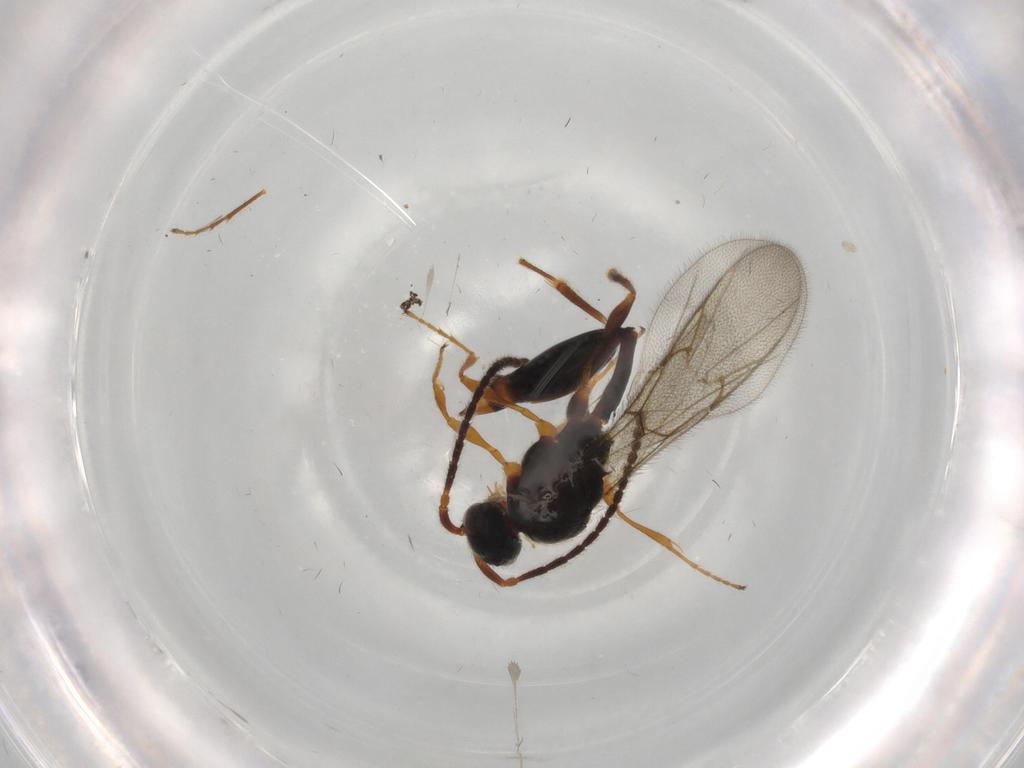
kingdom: Animalia
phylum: Arthropoda
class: Insecta
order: Hymenoptera
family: Diapriidae
